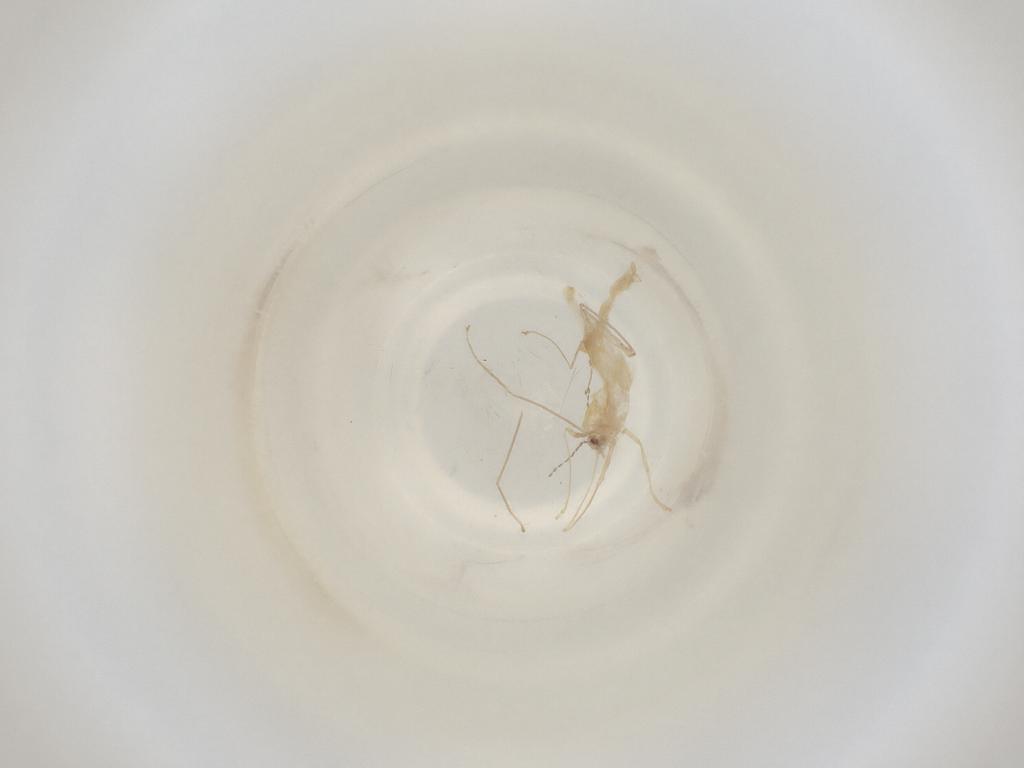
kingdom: Animalia
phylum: Arthropoda
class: Insecta
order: Diptera
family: Cecidomyiidae
